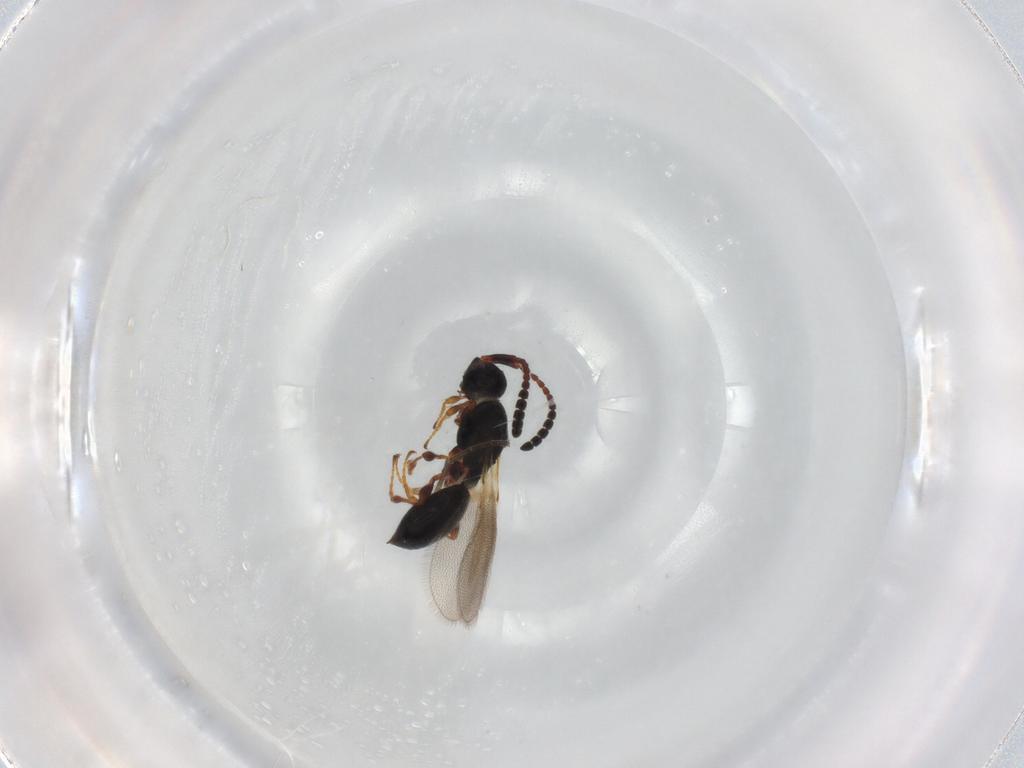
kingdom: Animalia
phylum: Arthropoda
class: Insecta
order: Hymenoptera
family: Diapriidae
